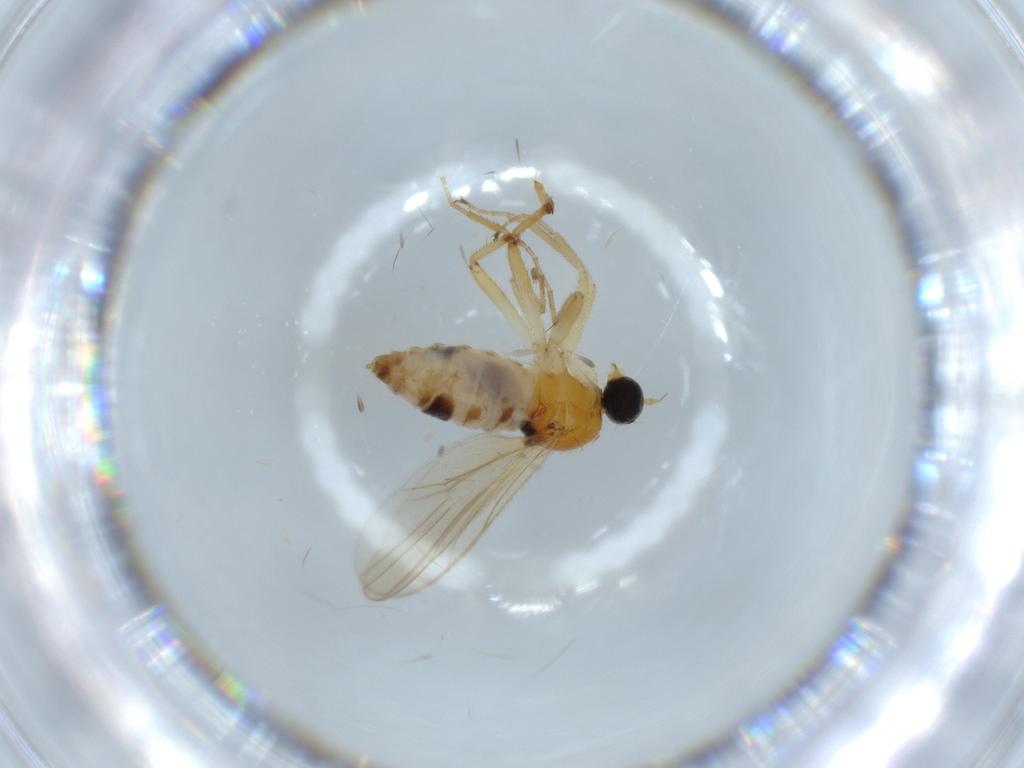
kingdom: Animalia
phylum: Arthropoda
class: Insecta
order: Diptera
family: Hybotidae
